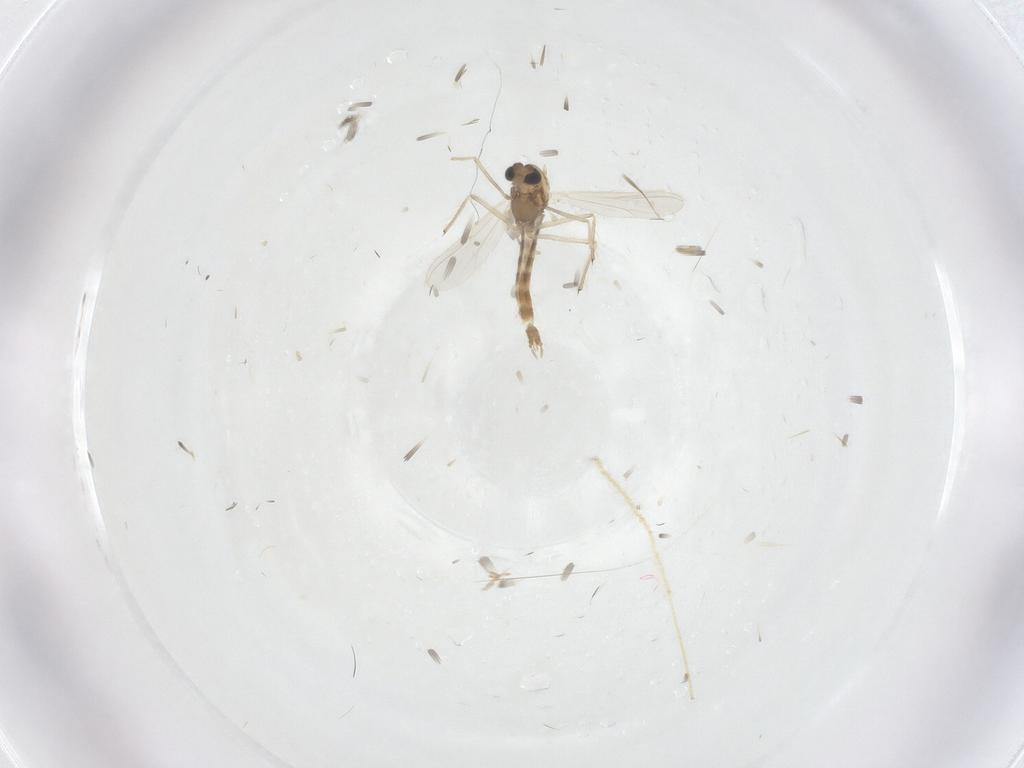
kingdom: Animalia
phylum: Arthropoda
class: Insecta
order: Diptera
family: Chironomidae
